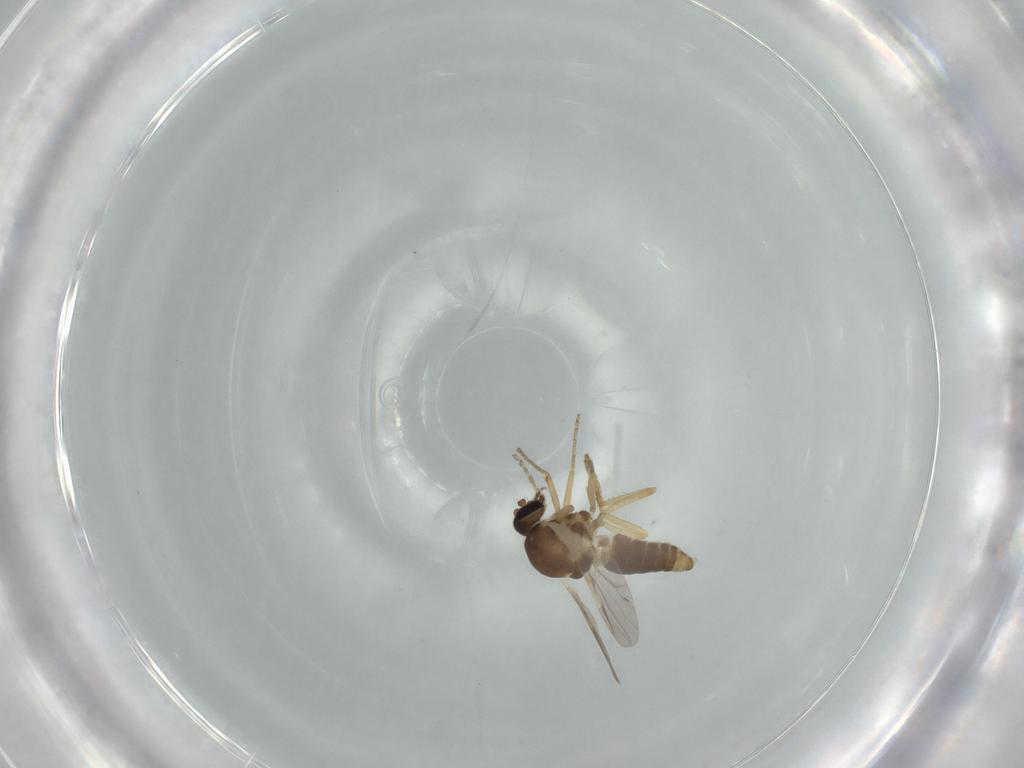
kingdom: Animalia
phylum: Arthropoda
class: Insecta
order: Diptera
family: Ceratopogonidae
